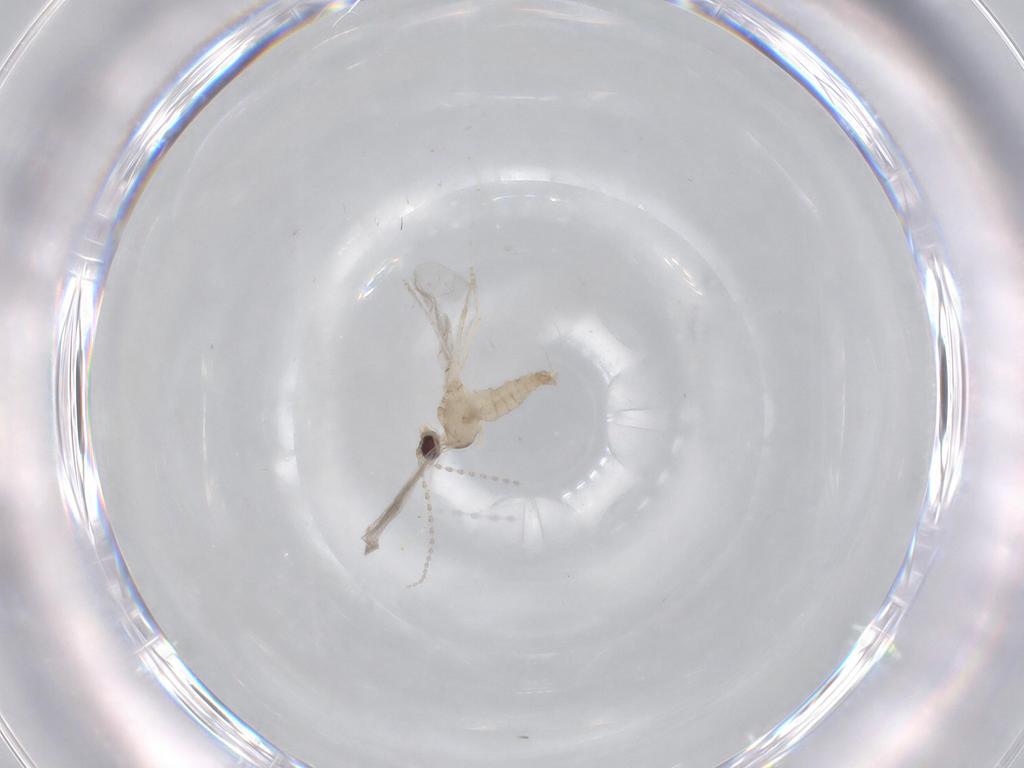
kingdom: Animalia
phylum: Arthropoda
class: Insecta
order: Diptera
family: Cecidomyiidae
